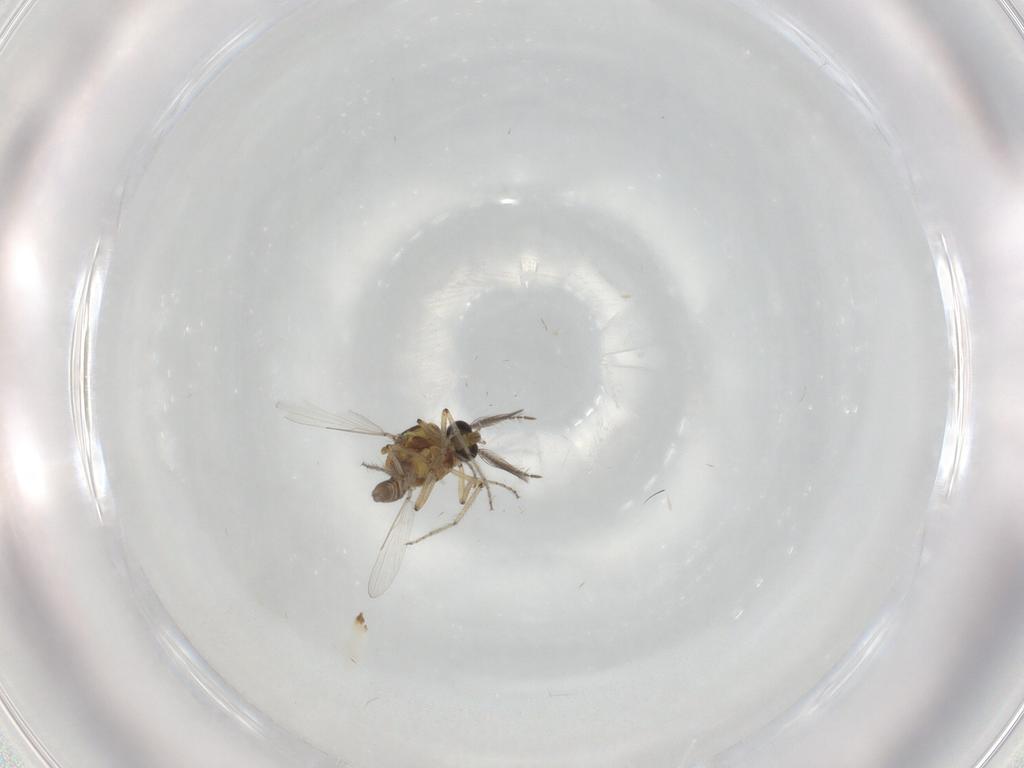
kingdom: Animalia
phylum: Arthropoda
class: Insecta
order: Diptera
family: Ceratopogonidae
